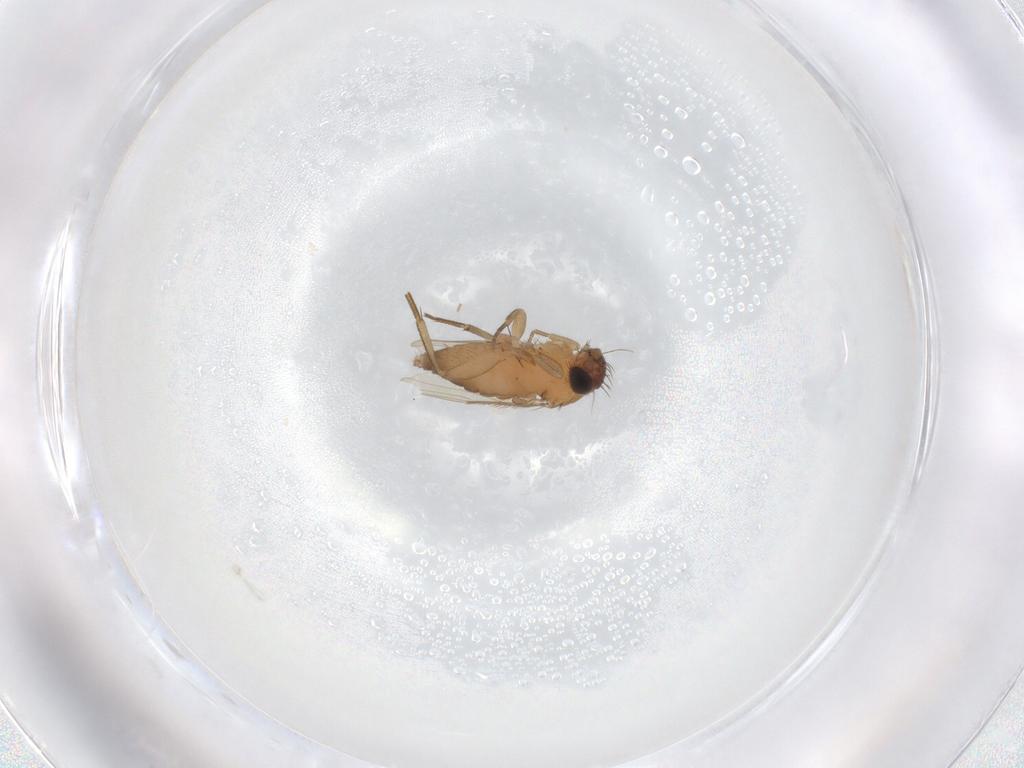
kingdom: Animalia
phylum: Arthropoda
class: Insecta
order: Diptera
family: Phoridae
